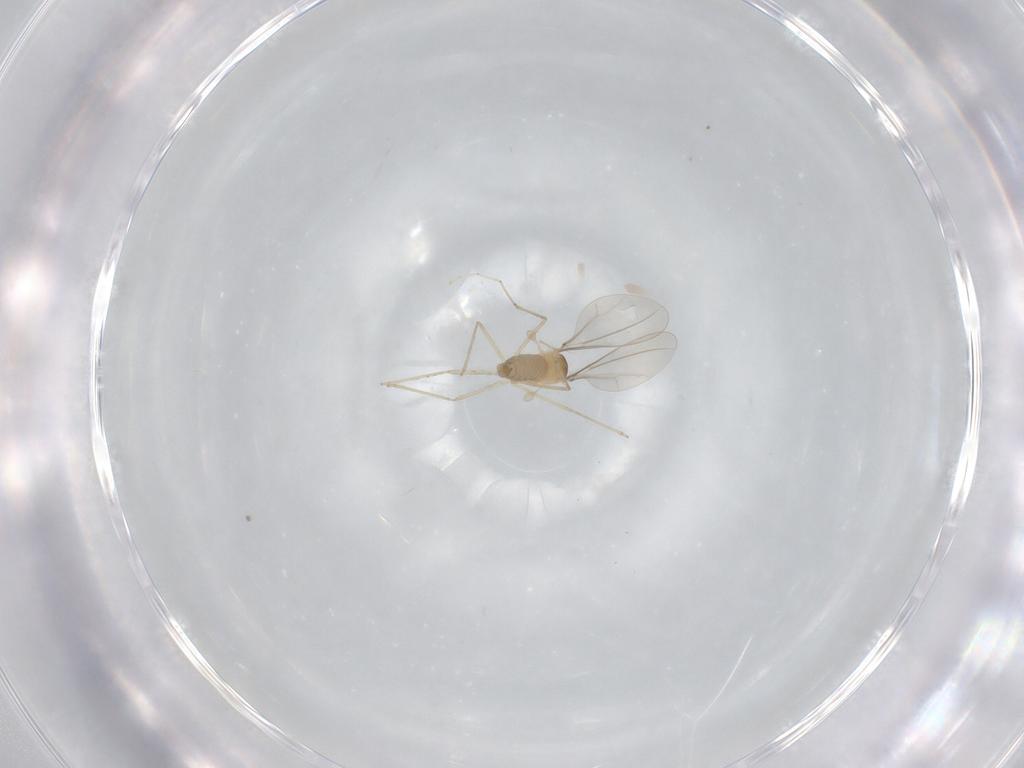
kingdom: Animalia
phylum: Arthropoda
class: Insecta
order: Diptera
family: Cecidomyiidae
